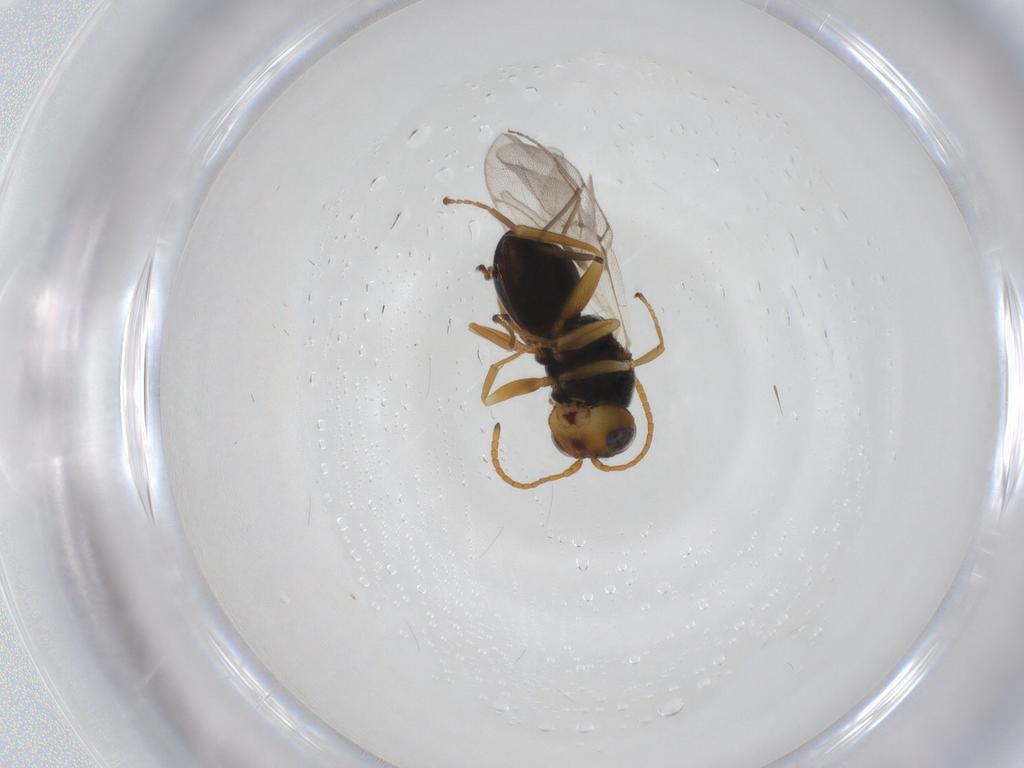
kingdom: Animalia
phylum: Arthropoda
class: Insecta
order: Hymenoptera
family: Cynipidae
